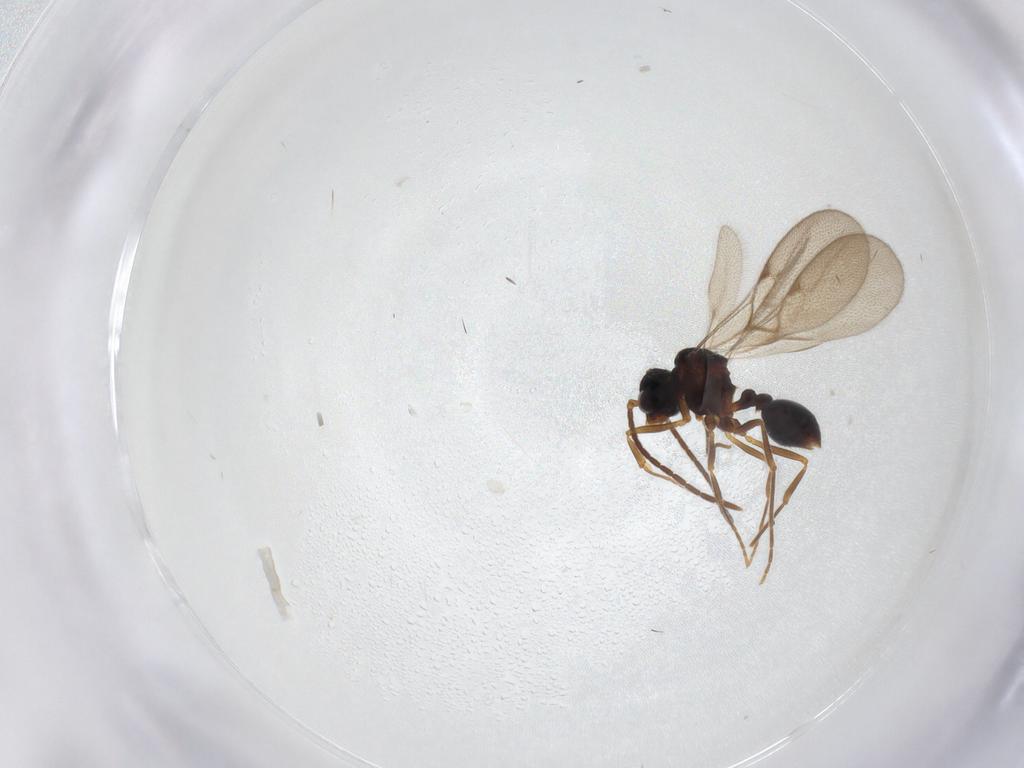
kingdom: Animalia
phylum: Arthropoda
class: Insecta
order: Hymenoptera
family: Formicidae
